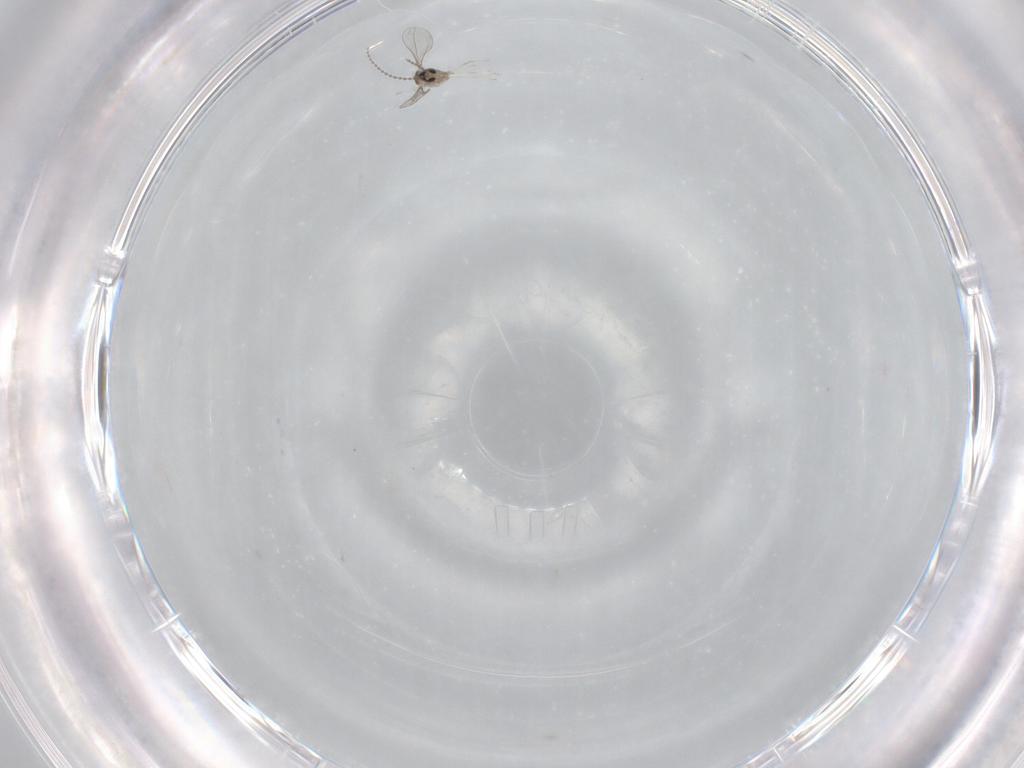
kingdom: Animalia
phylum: Arthropoda
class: Insecta
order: Diptera
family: Cecidomyiidae
